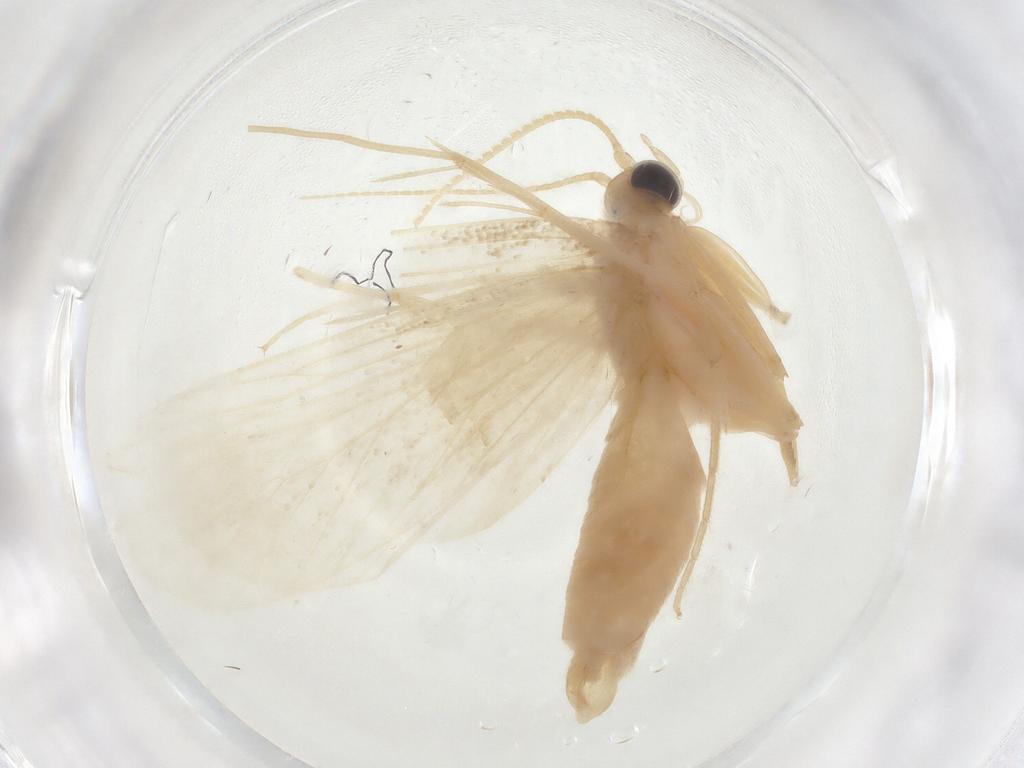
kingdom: Animalia
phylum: Arthropoda
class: Insecta
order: Lepidoptera
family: Crambidae
